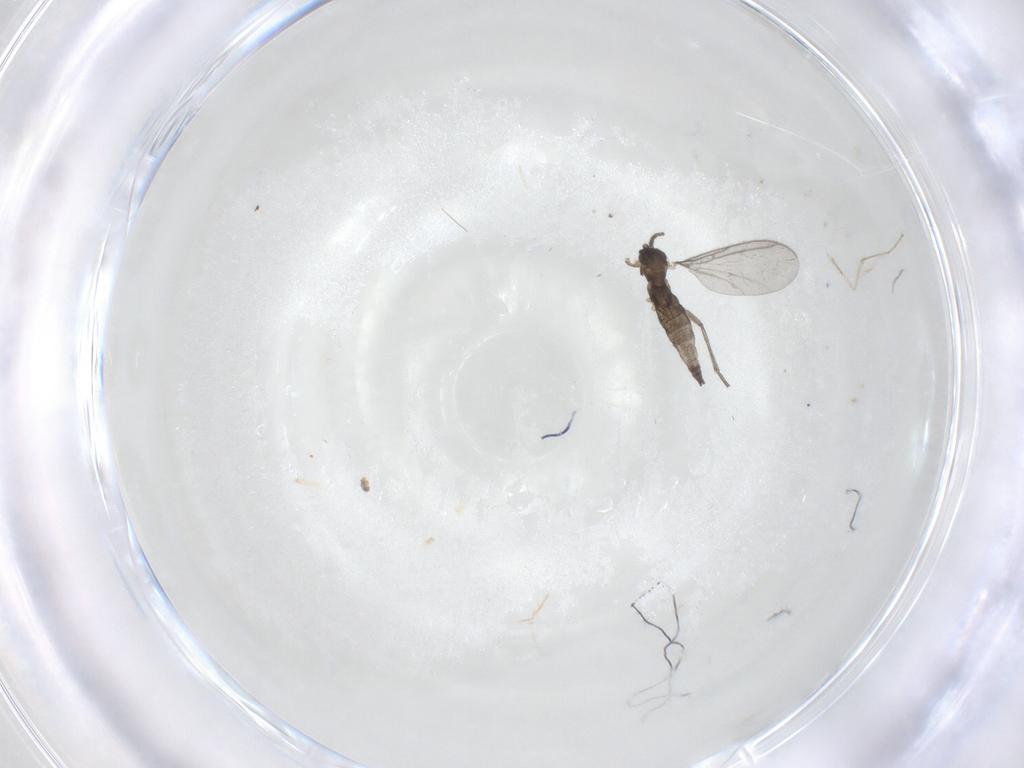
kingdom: Animalia
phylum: Arthropoda
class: Insecta
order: Diptera
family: Cecidomyiidae
